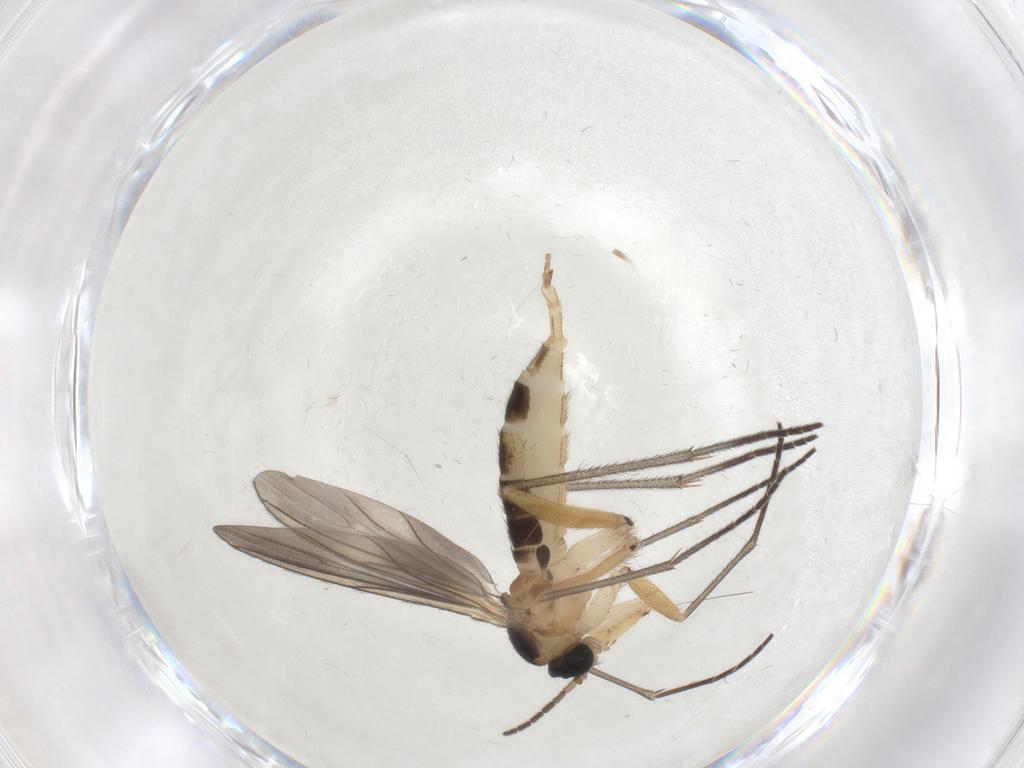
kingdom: Animalia
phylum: Arthropoda
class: Insecta
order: Diptera
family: Sciaridae
